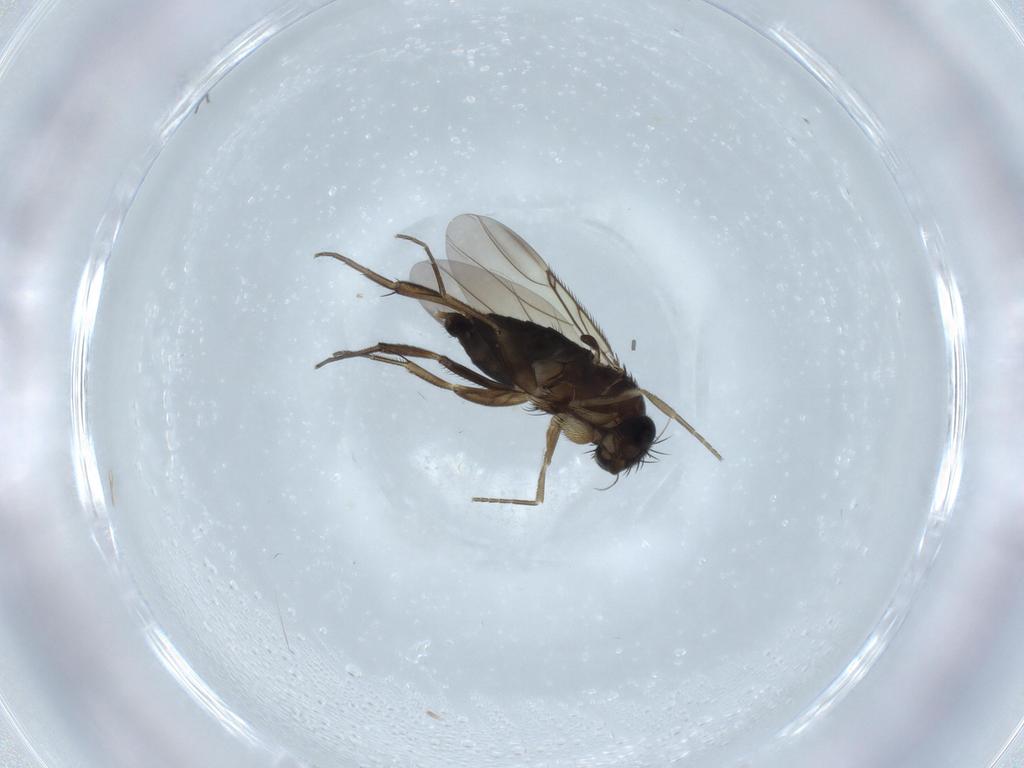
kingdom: Animalia
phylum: Arthropoda
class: Insecta
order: Diptera
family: Phoridae
